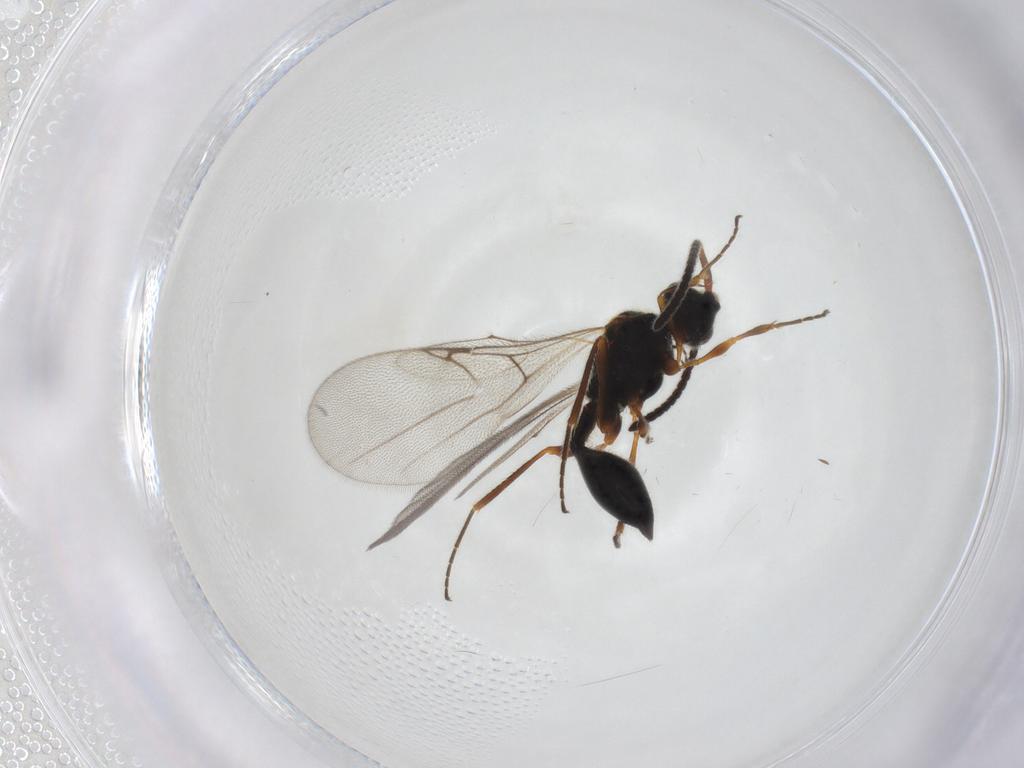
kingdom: Animalia
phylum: Arthropoda
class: Insecta
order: Hymenoptera
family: Diapriidae
